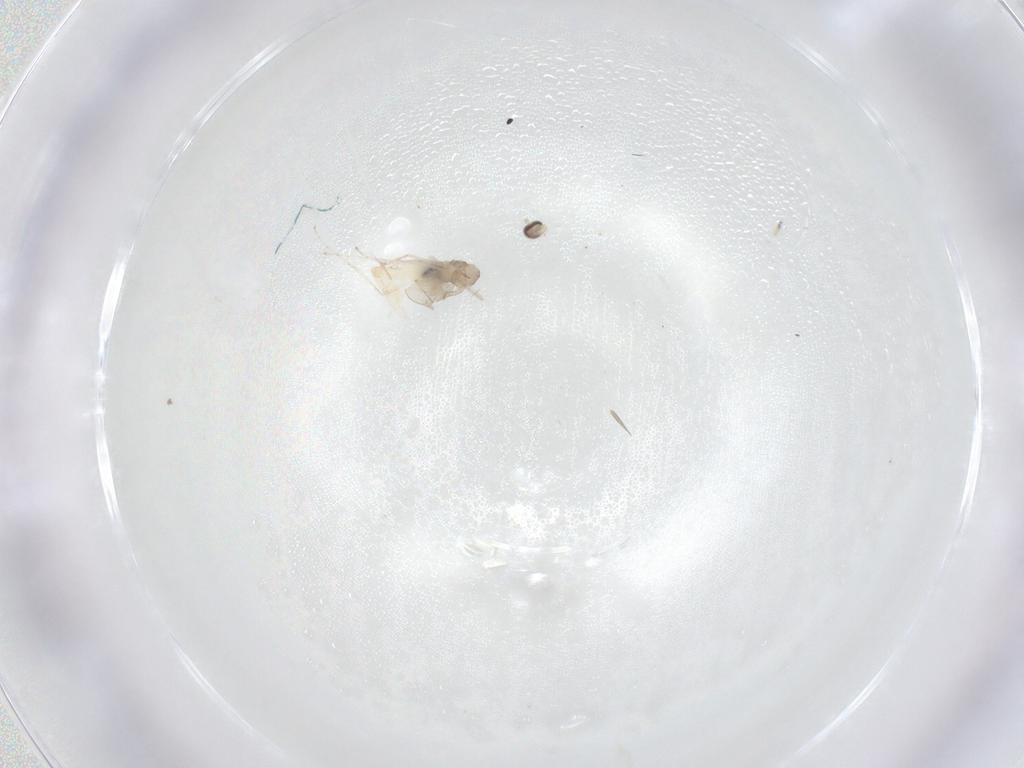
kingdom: Animalia
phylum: Arthropoda
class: Insecta
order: Diptera
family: Cecidomyiidae
